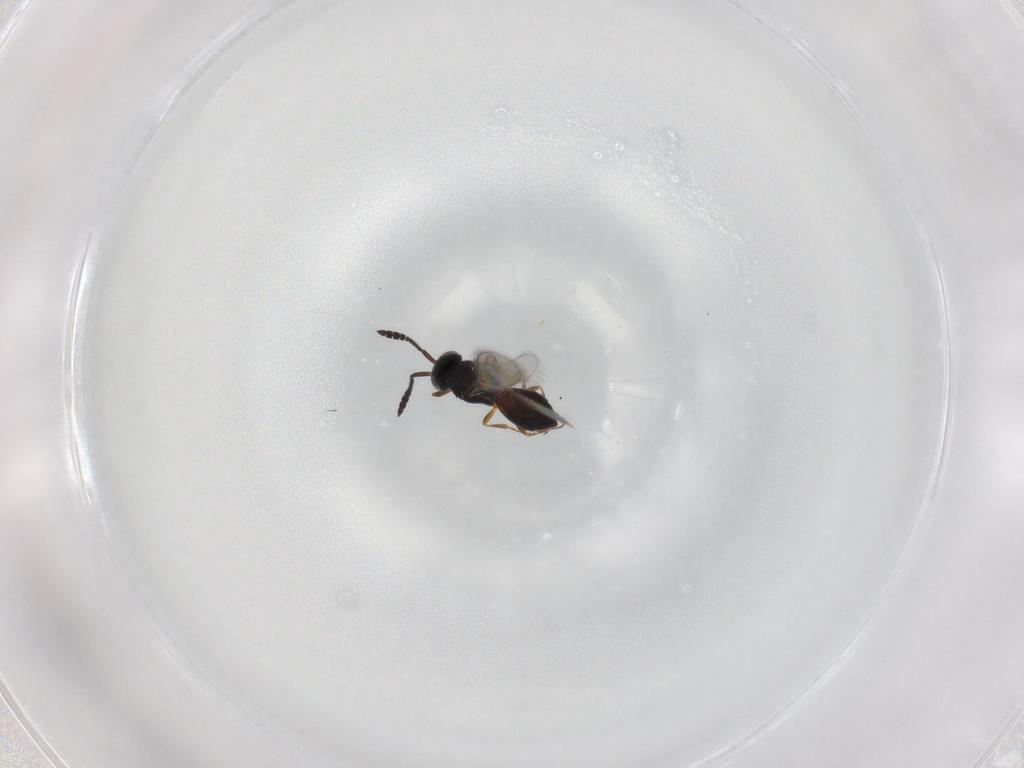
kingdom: Animalia
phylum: Arthropoda
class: Insecta
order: Hymenoptera
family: Scelionidae
